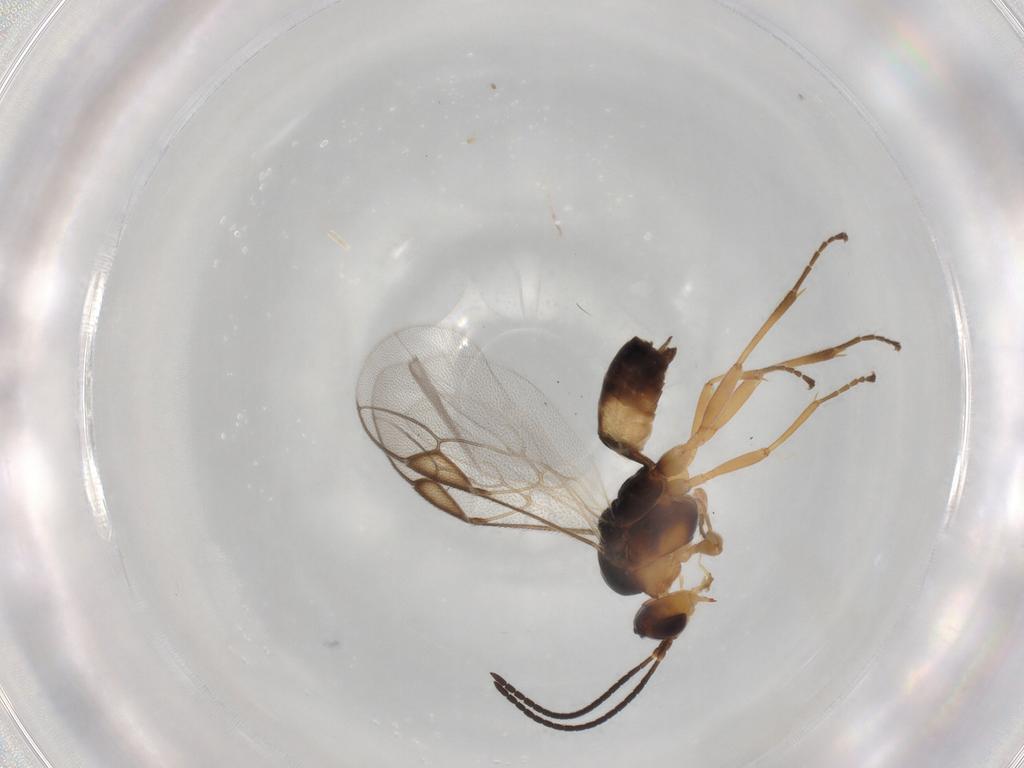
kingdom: Animalia
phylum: Arthropoda
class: Insecta
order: Hymenoptera
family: Braconidae
